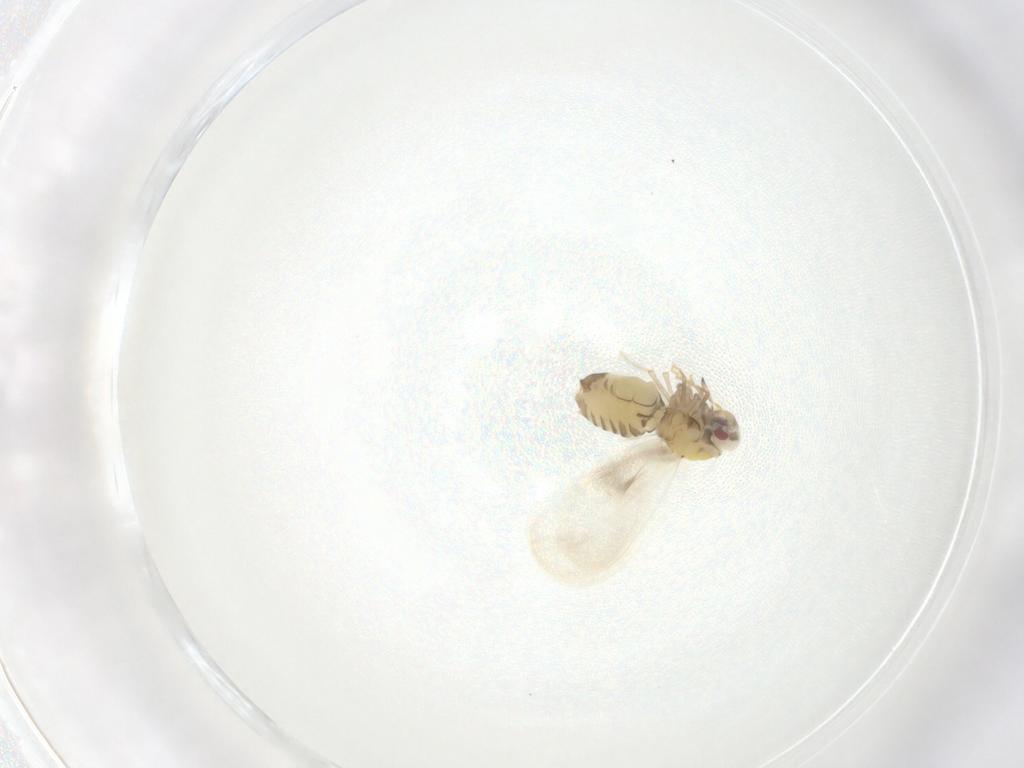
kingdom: Animalia
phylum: Arthropoda
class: Insecta
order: Hemiptera
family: Aleyrodidae
